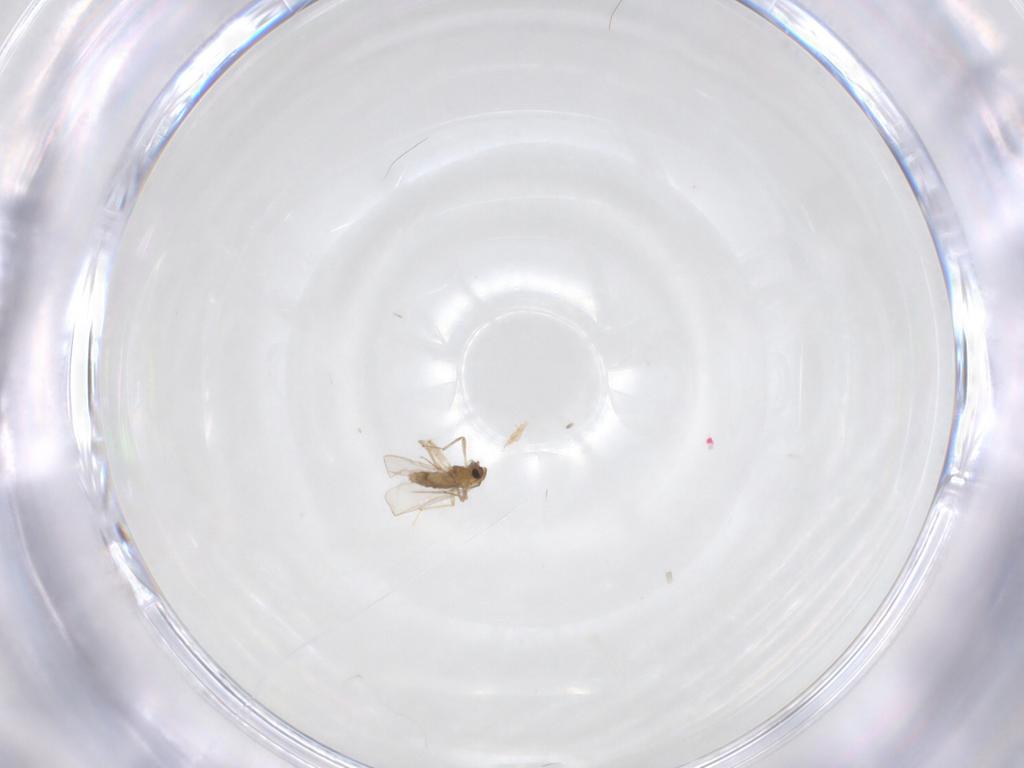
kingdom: Animalia
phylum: Arthropoda
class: Insecta
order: Diptera
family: Chironomidae
